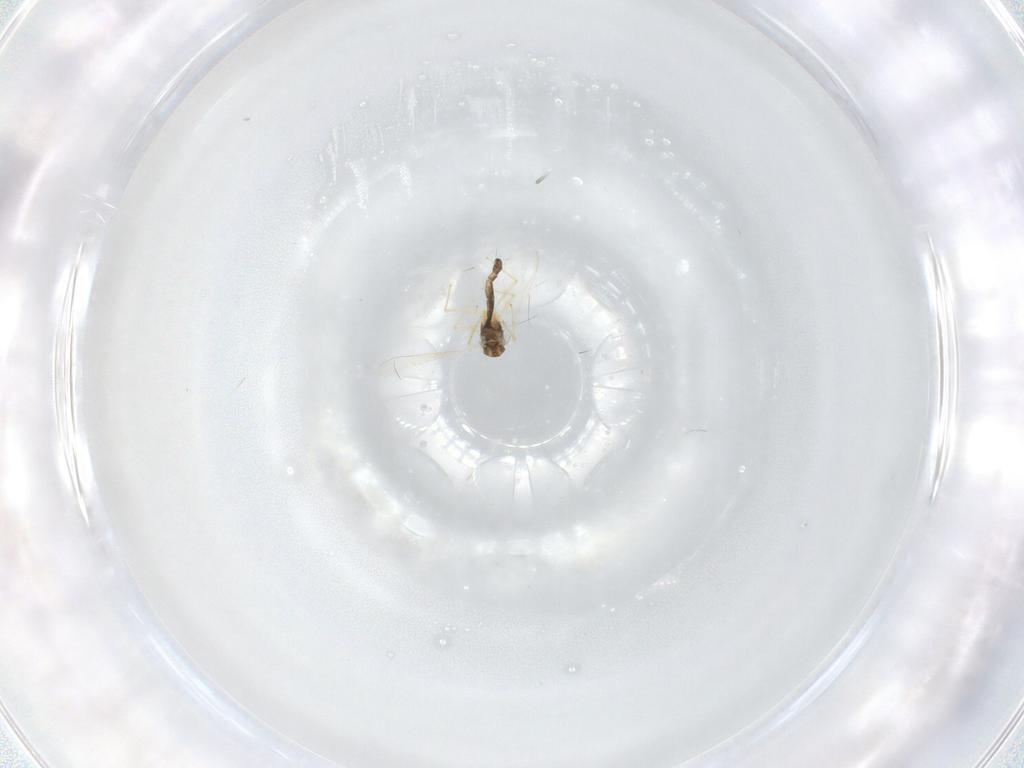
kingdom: Animalia
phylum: Arthropoda
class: Insecta
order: Diptera
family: Chironomidae
